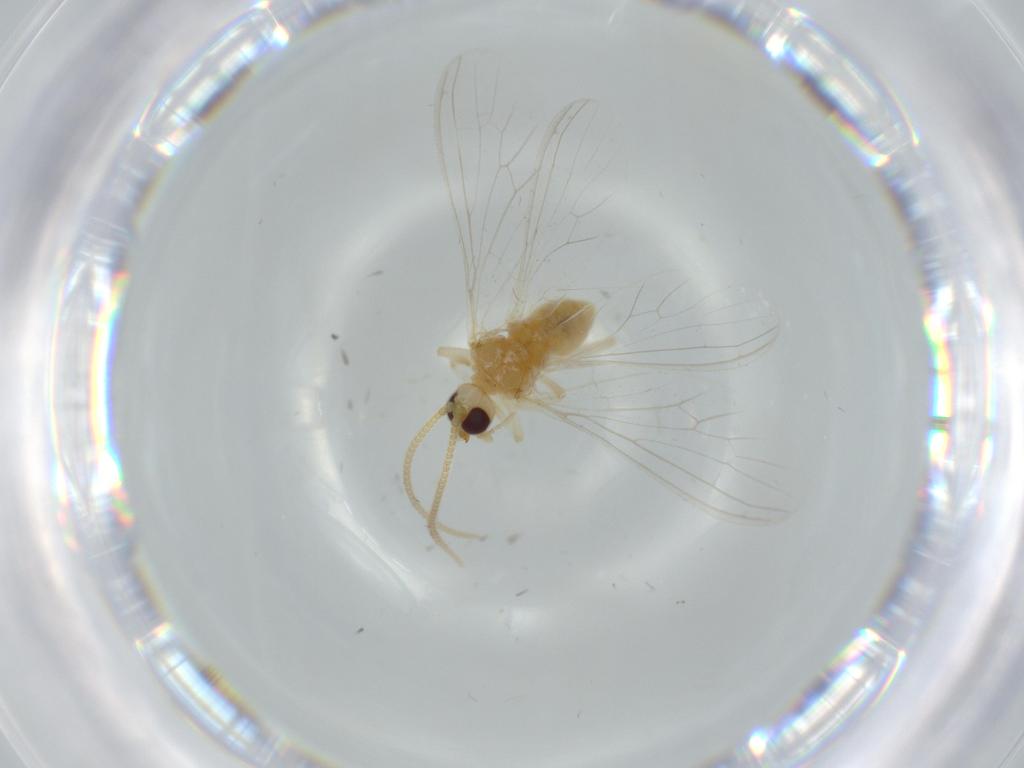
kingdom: Animalia
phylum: Arthropoda
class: Insecta
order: Neuroptera
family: Coniopterygidae
